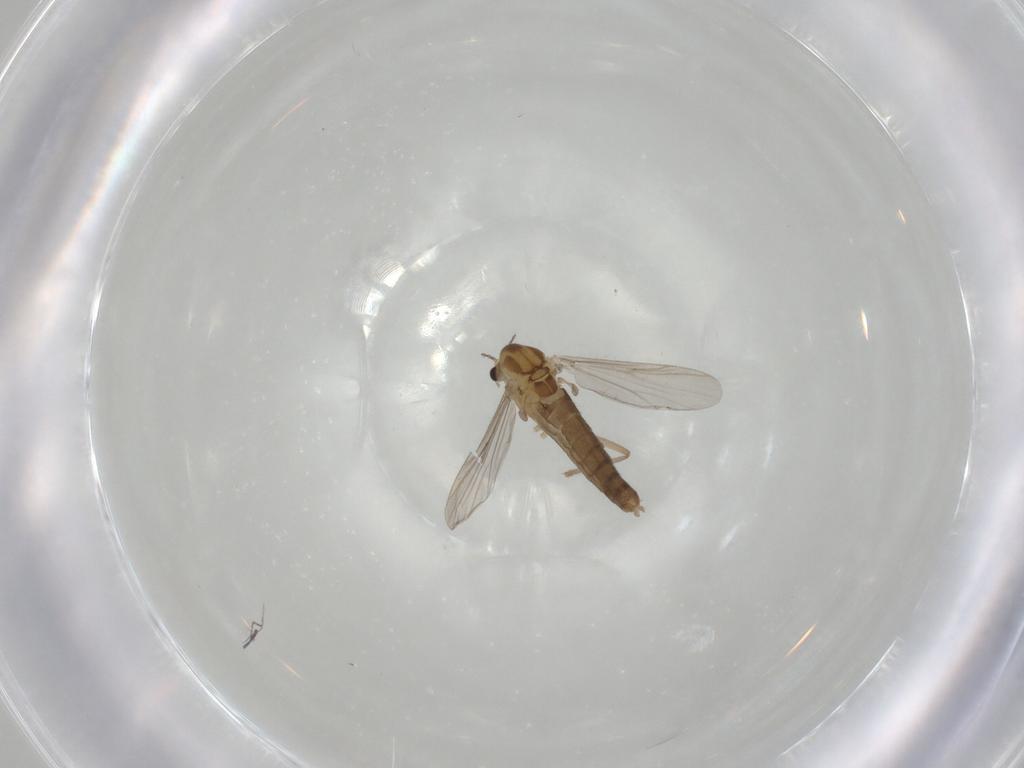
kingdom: Animalia
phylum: Arthropoda
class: Insecta
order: Diptera
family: Chironomidae
